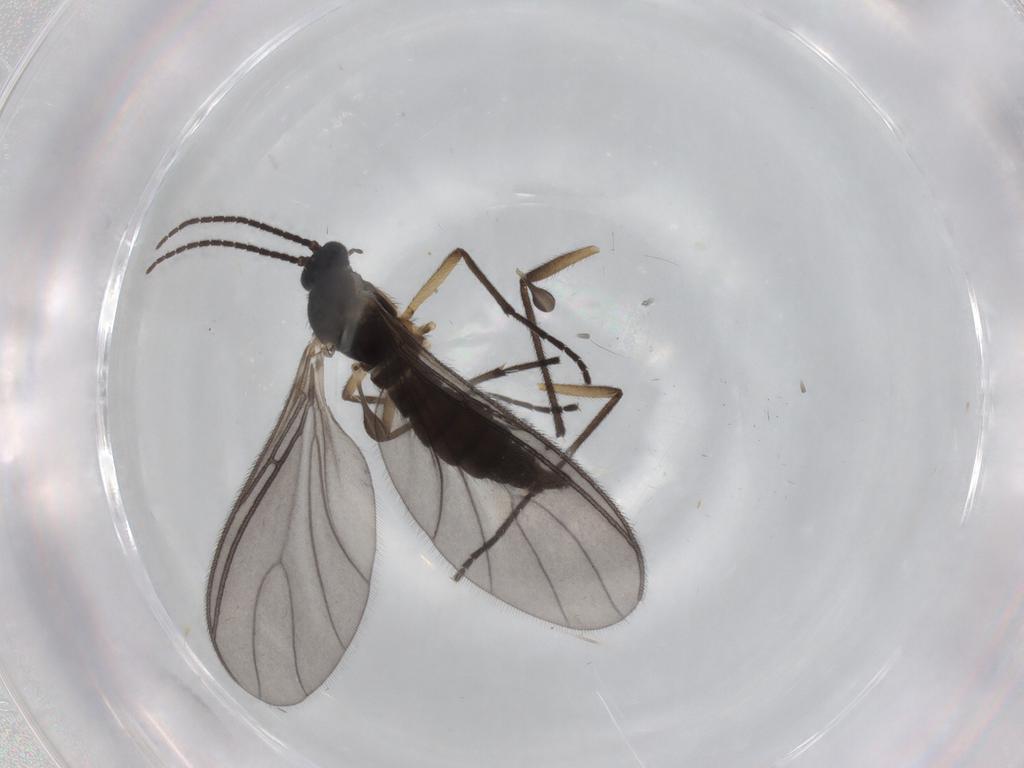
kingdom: Animalia
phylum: Arthropoda
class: Insecta
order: Diptera
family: Sciaridae
